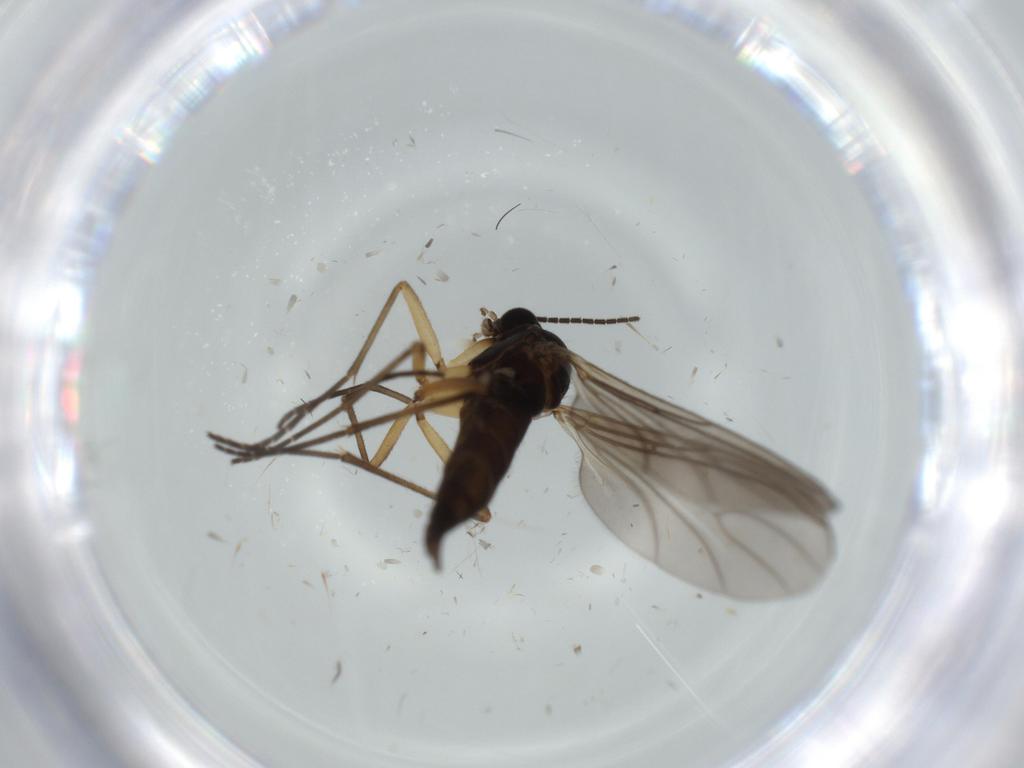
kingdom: Animalia
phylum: Arthropoda
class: Insecta
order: Diptera
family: Sciaridae
